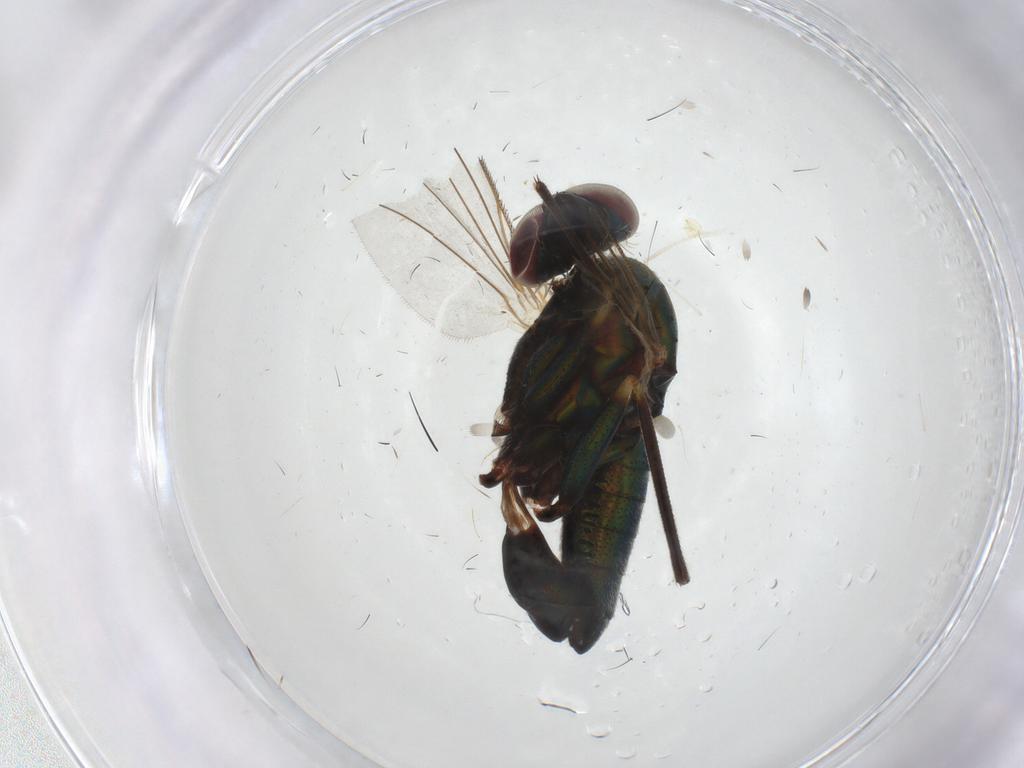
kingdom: Animalia
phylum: Arthropoda
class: Insecta
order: Diptera
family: Stratiomyidae
